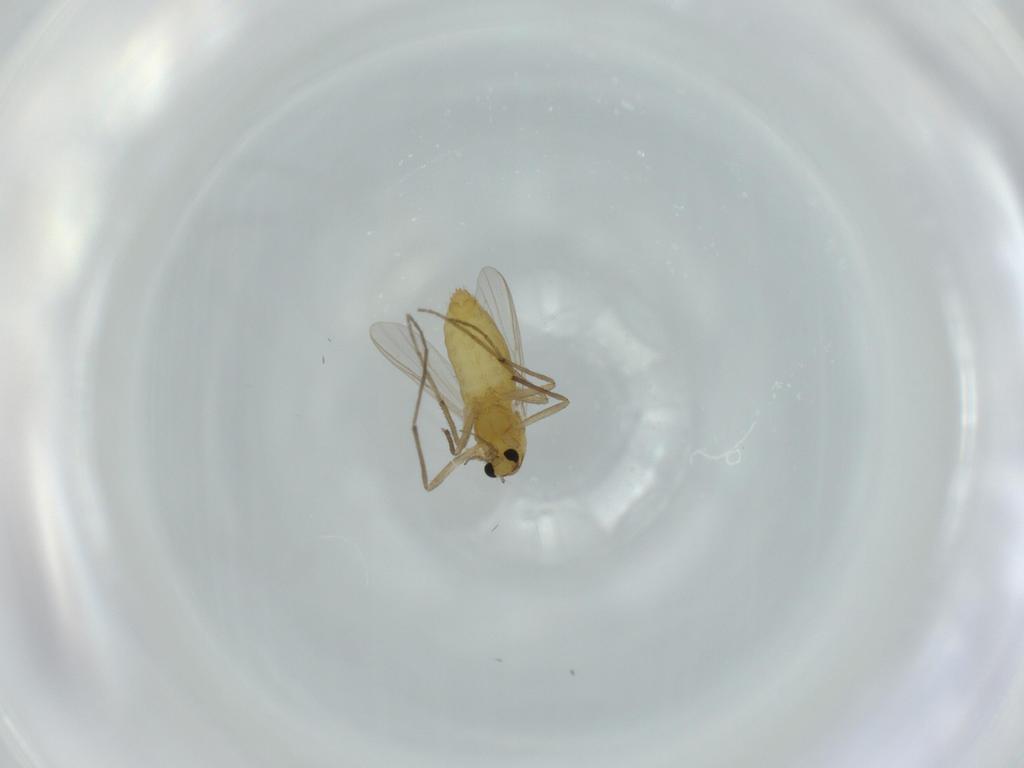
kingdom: Animalia
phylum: Arthropoda
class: Insecta
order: Diptera
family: Chironomidae
